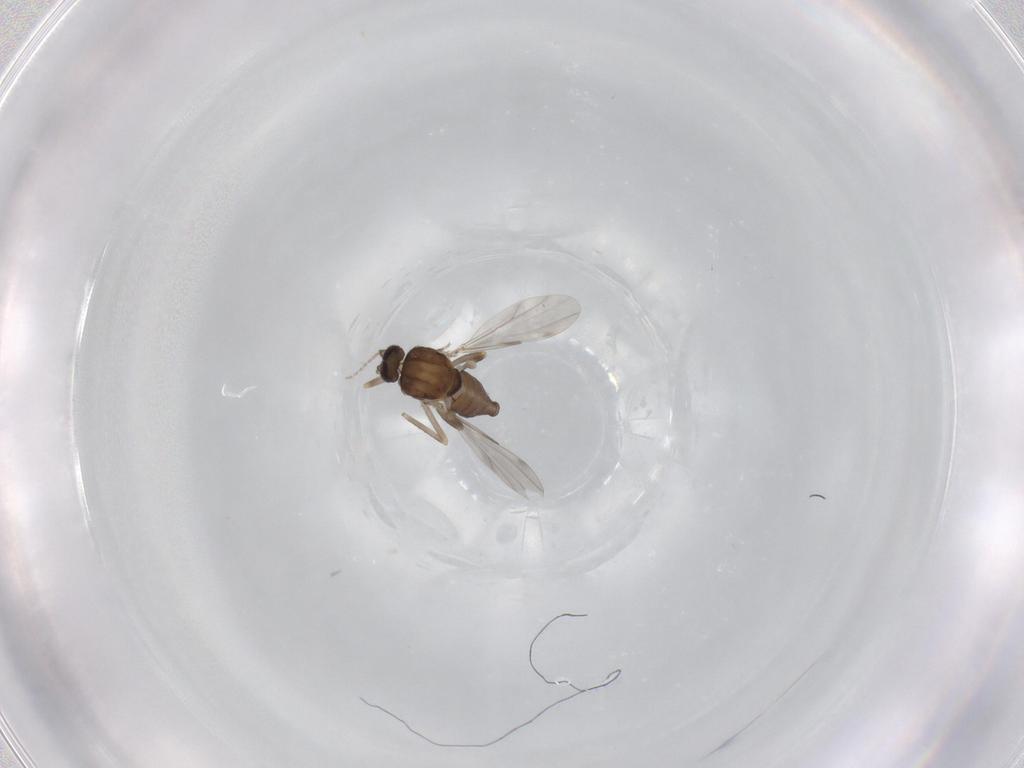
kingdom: Animalia
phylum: Arthropoda
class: Insecta
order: Diptera
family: Ceratopogonidae
